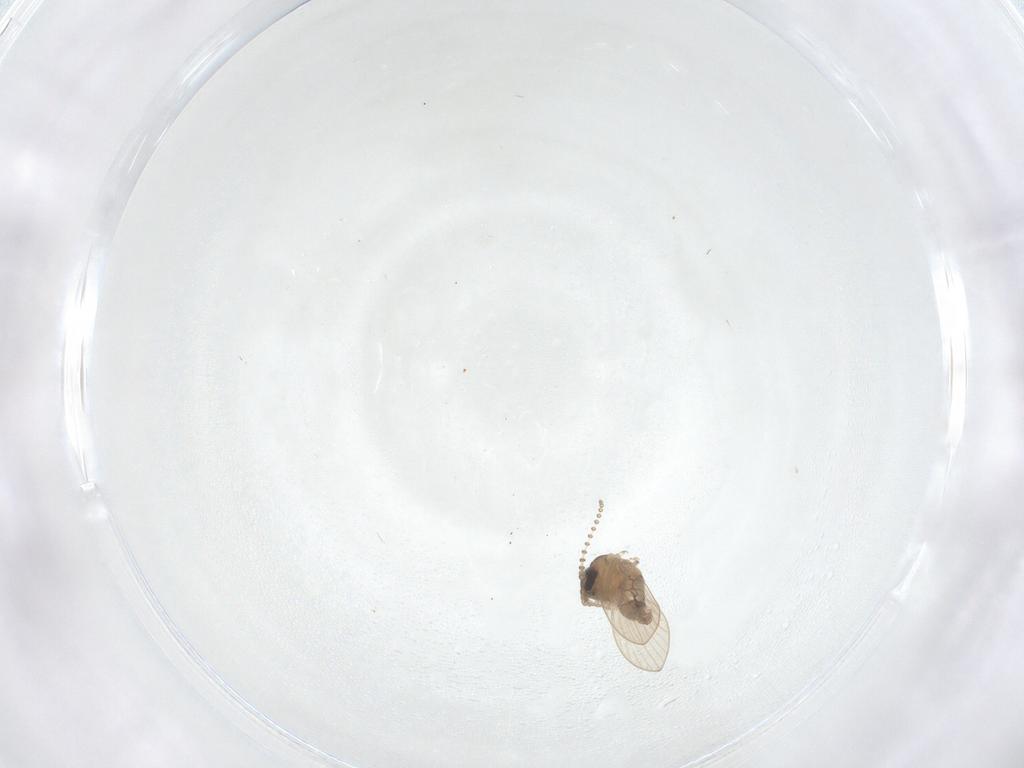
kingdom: Animalia
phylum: Arthropoda
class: Insecta
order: Diptera
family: Psychodidae
